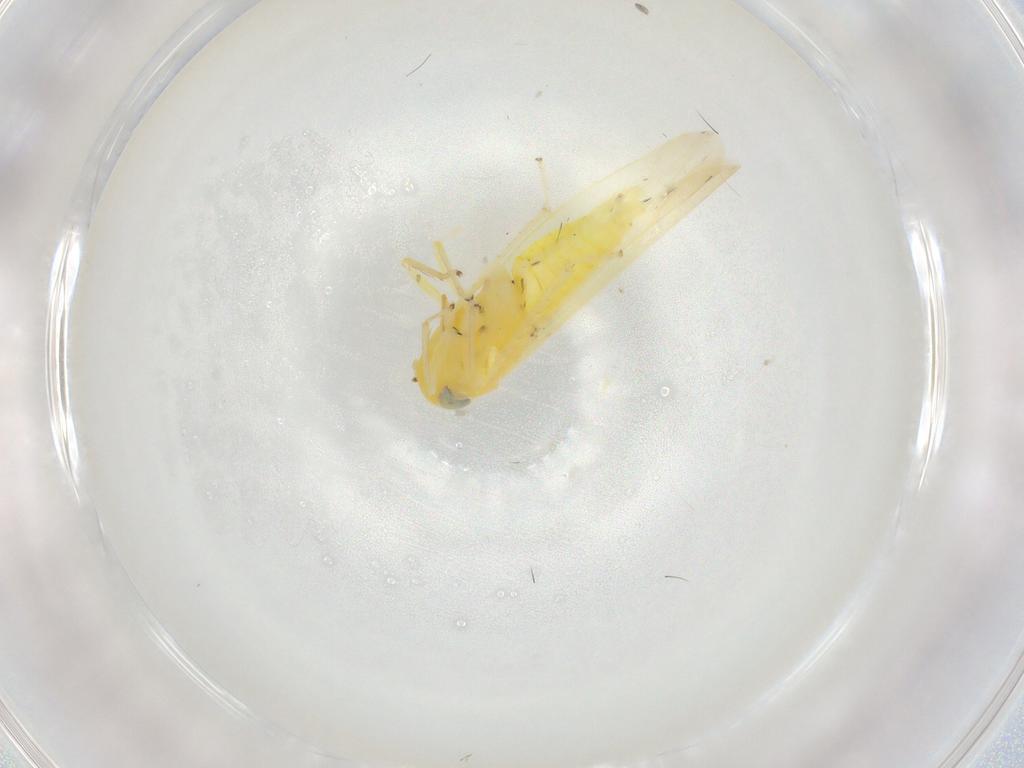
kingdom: Animalia
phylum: Arthropoda
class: Insecta
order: Hemiptera
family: Cicadellidae
